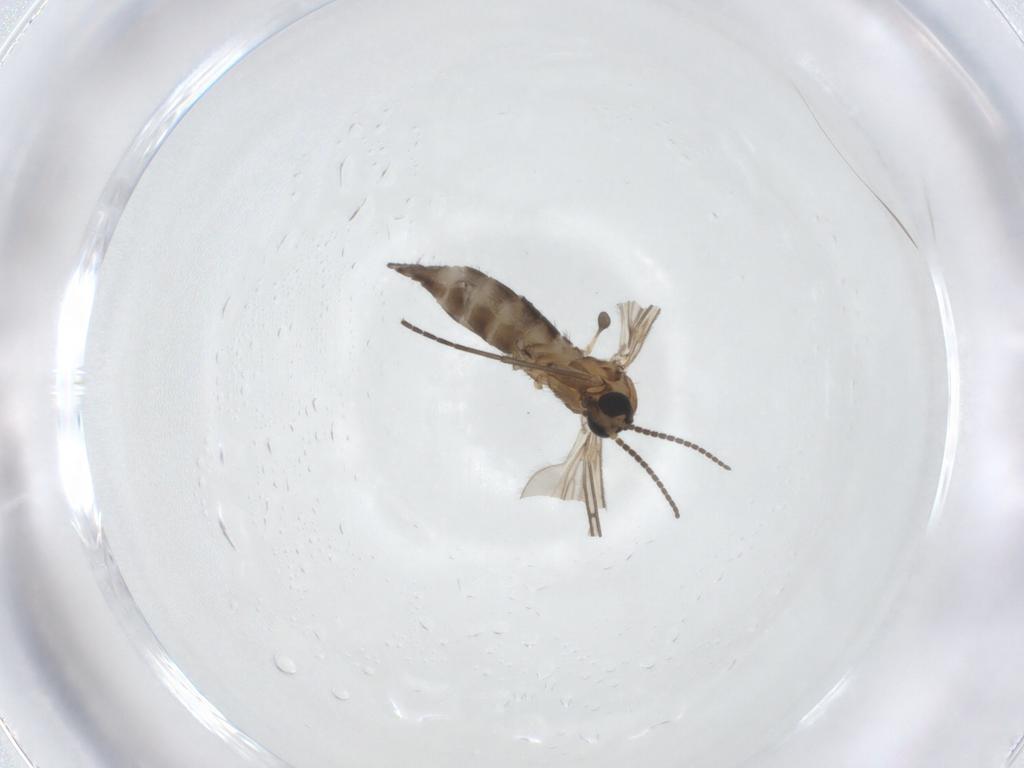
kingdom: Animalia
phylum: Arthropoda
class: Insecta
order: Diptera
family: Sciaridae
